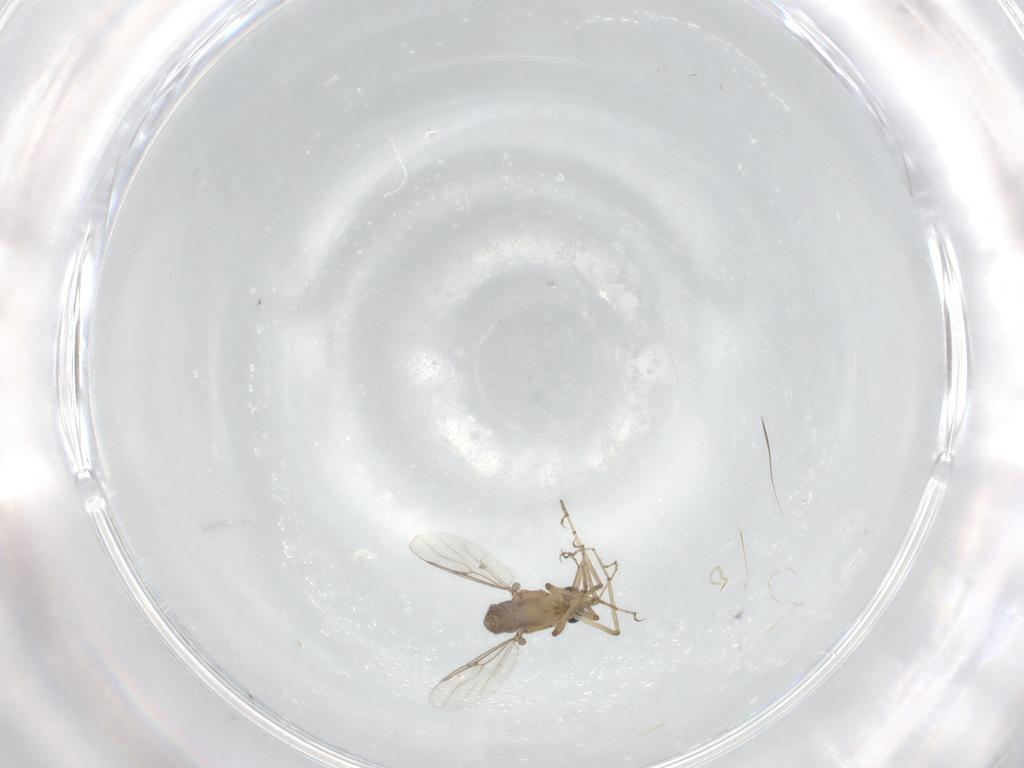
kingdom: Animalia
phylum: Arthropoda
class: Insecta
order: Diptera
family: Ceratopogonidae
